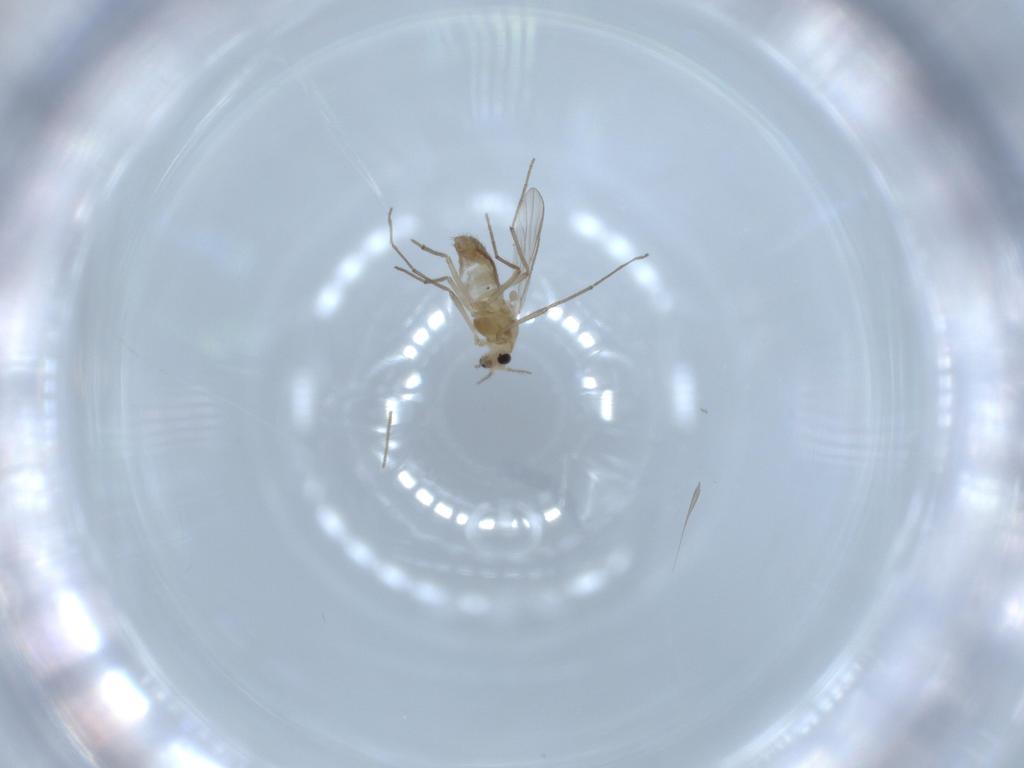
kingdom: Animalia
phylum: Arthropoda
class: Insecta
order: Diptera
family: Chironomidae
